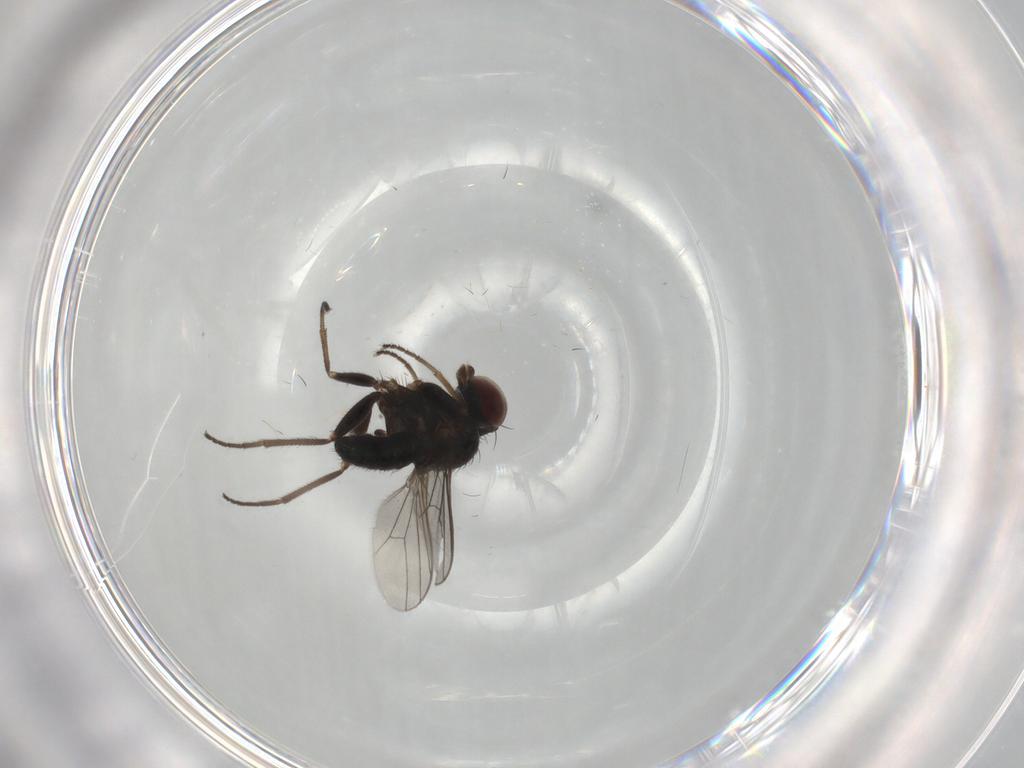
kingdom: Animalia
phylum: Arthropoda
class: Insecta
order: Diptera
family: Dolichopodidae
